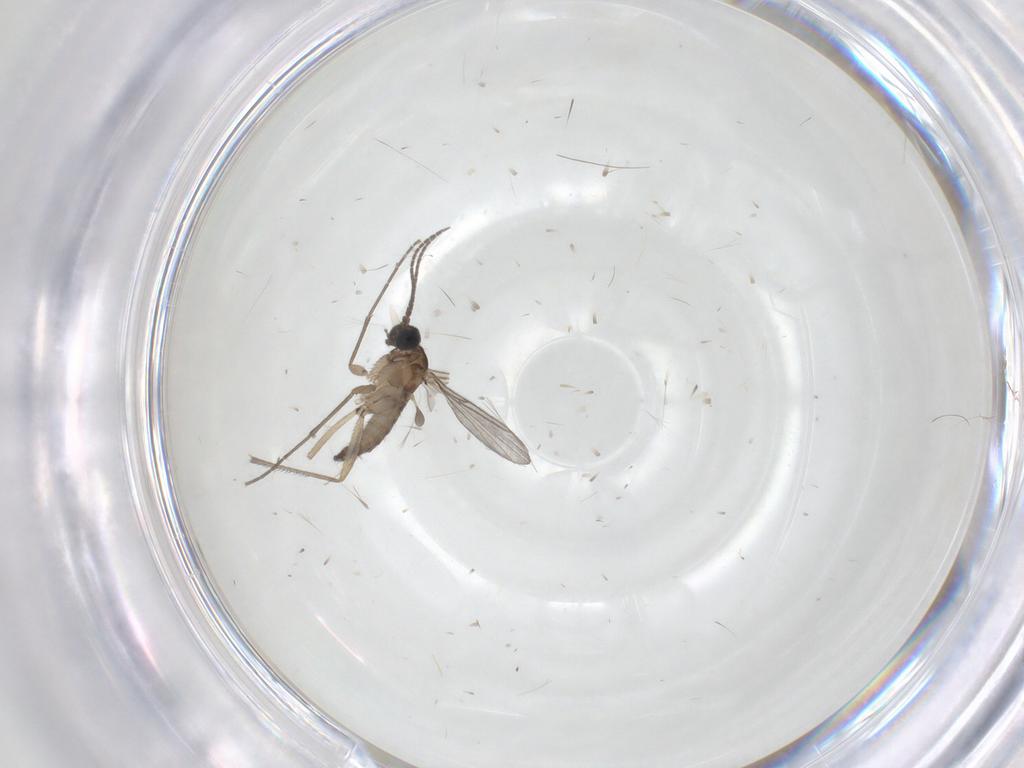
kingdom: Animalia
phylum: Arthropoda
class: Insecta
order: Diptera
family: Sciaridae
